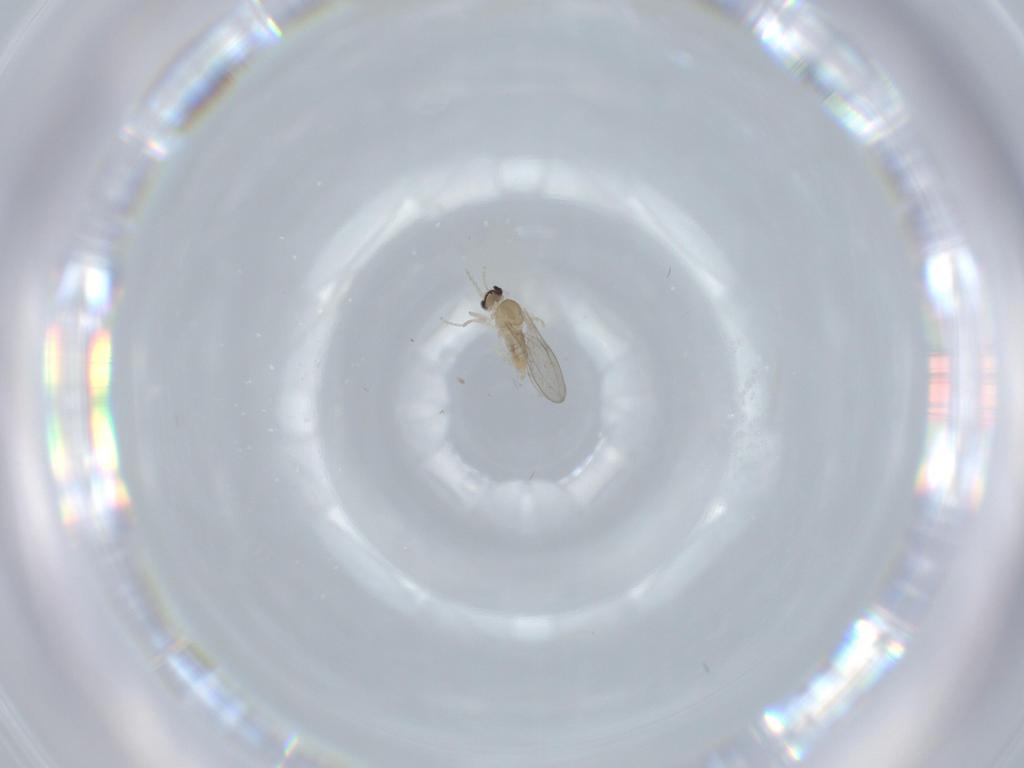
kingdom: Animalia
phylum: Arthropoda
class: Insecta
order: Diptera
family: Cecidomyiidae
